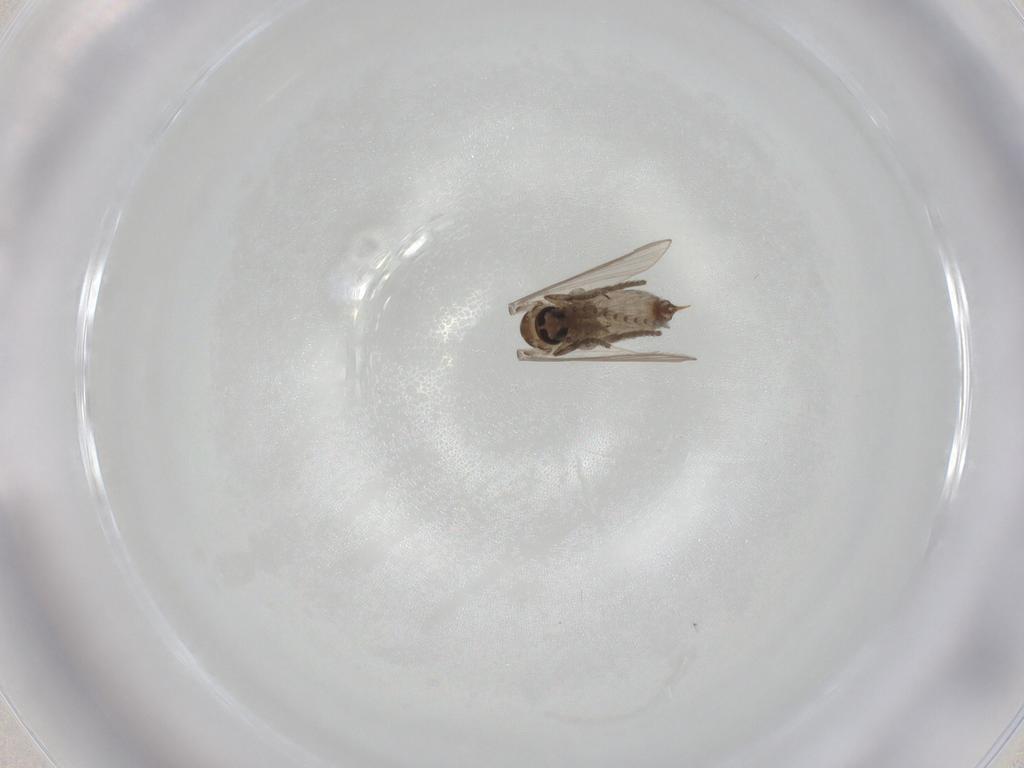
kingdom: Animalia
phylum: Arthropoda
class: Insecta
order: Diptera
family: Psychodidae
